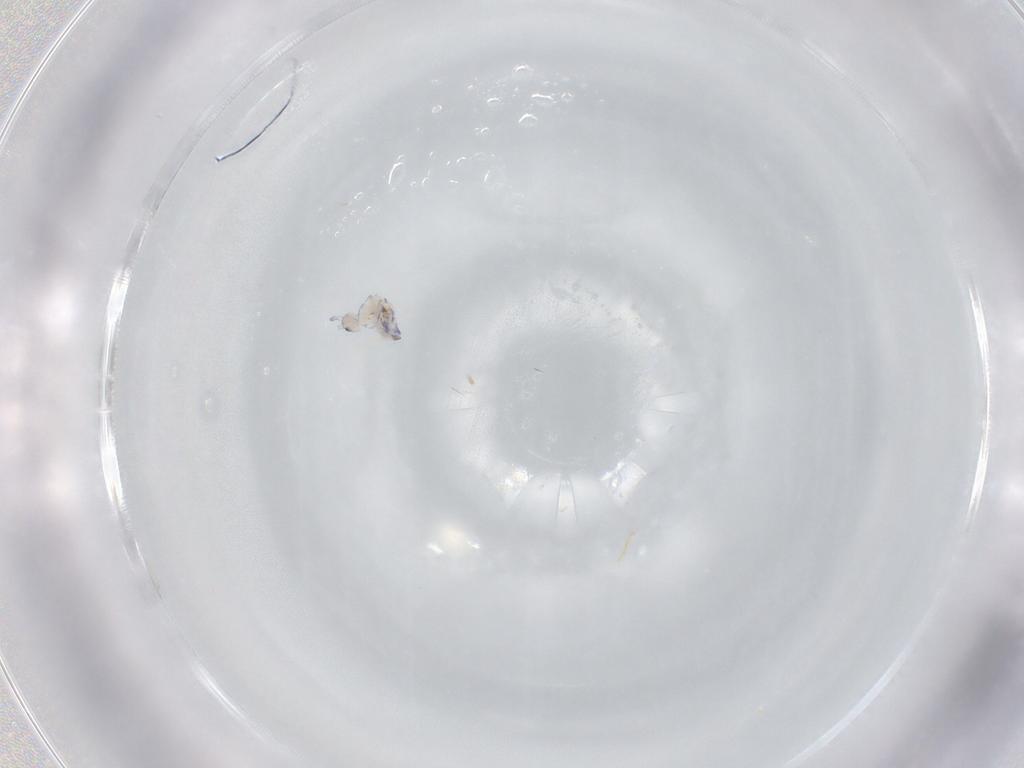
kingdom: Animalia
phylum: Arthropoda
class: Collembola
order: Entomobryomorpha
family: Entomobryidae
